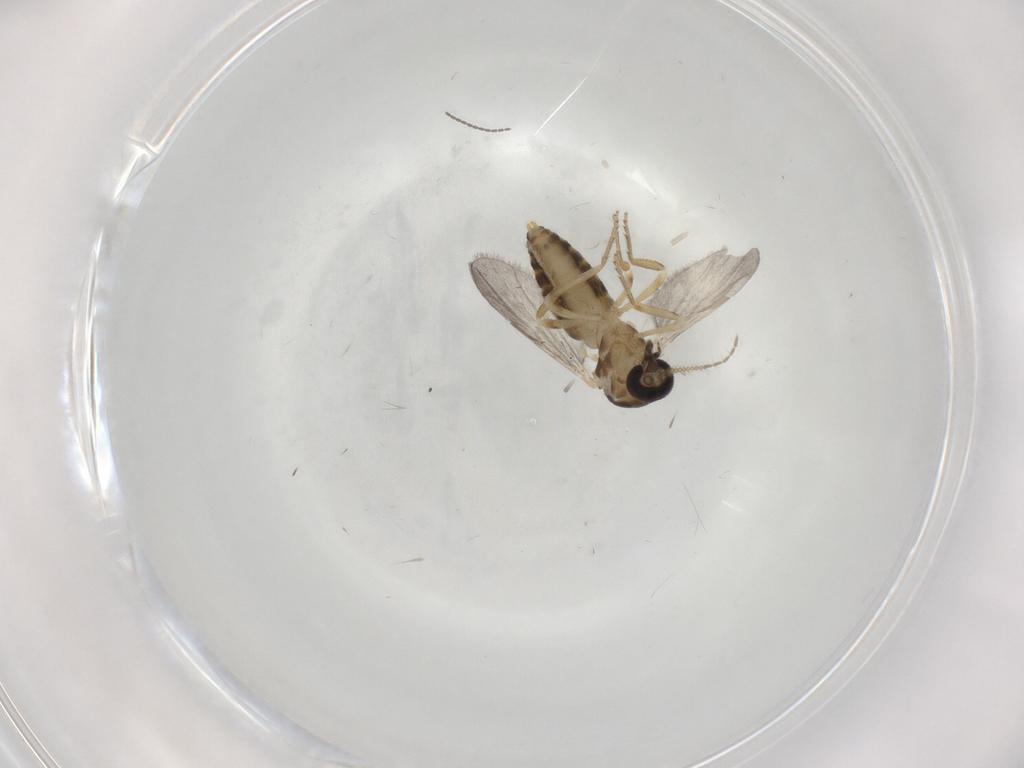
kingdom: Animalia
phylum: Arthropoda
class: Insecta
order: Diptera
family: Ceratopogonidae
